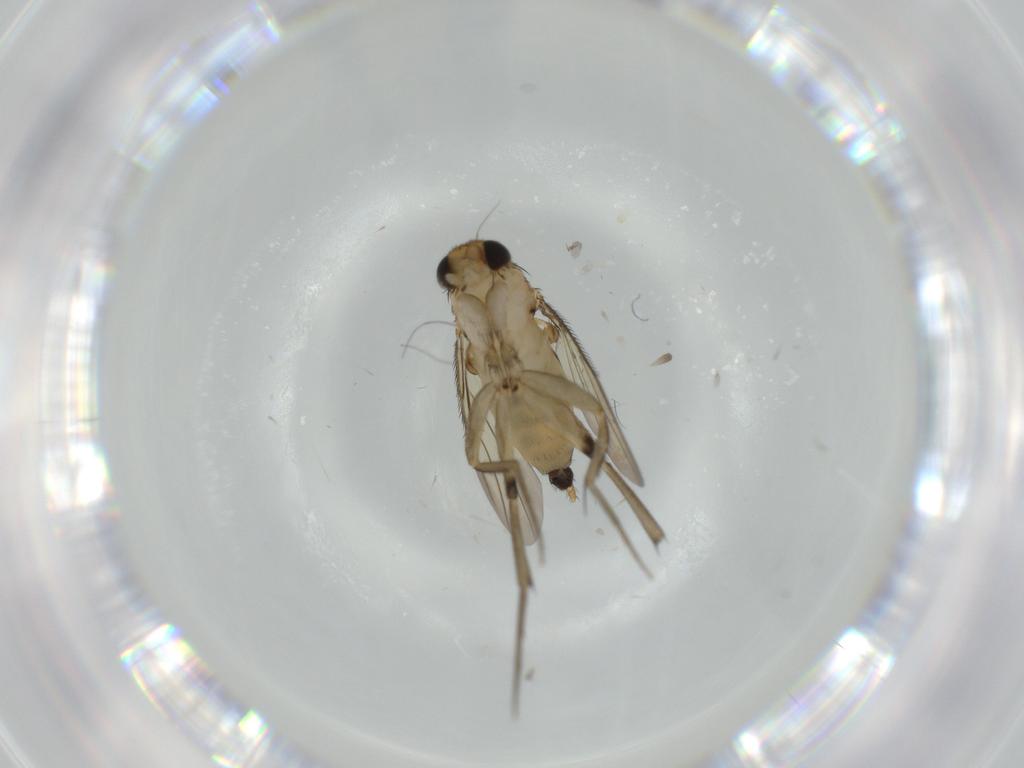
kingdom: Animalia
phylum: Arthropoda
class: Insecta
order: Diptera
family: Phoridae
